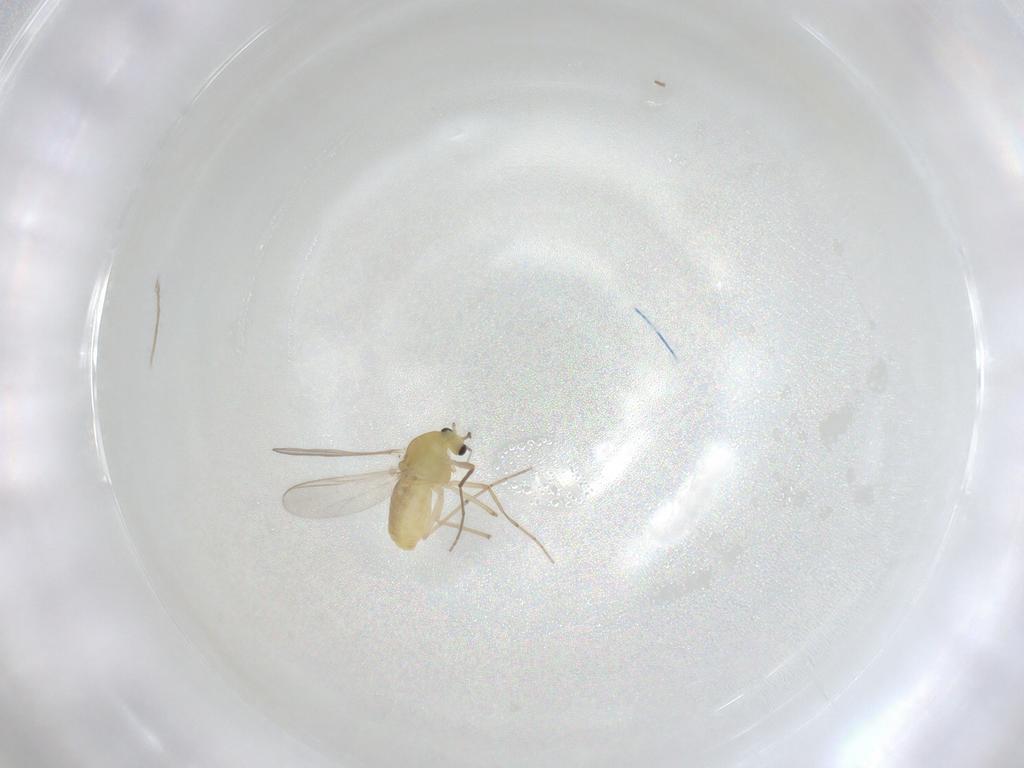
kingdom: Animalia
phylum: Arthropoda
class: Insecta
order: Diptera
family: Chironomidae
